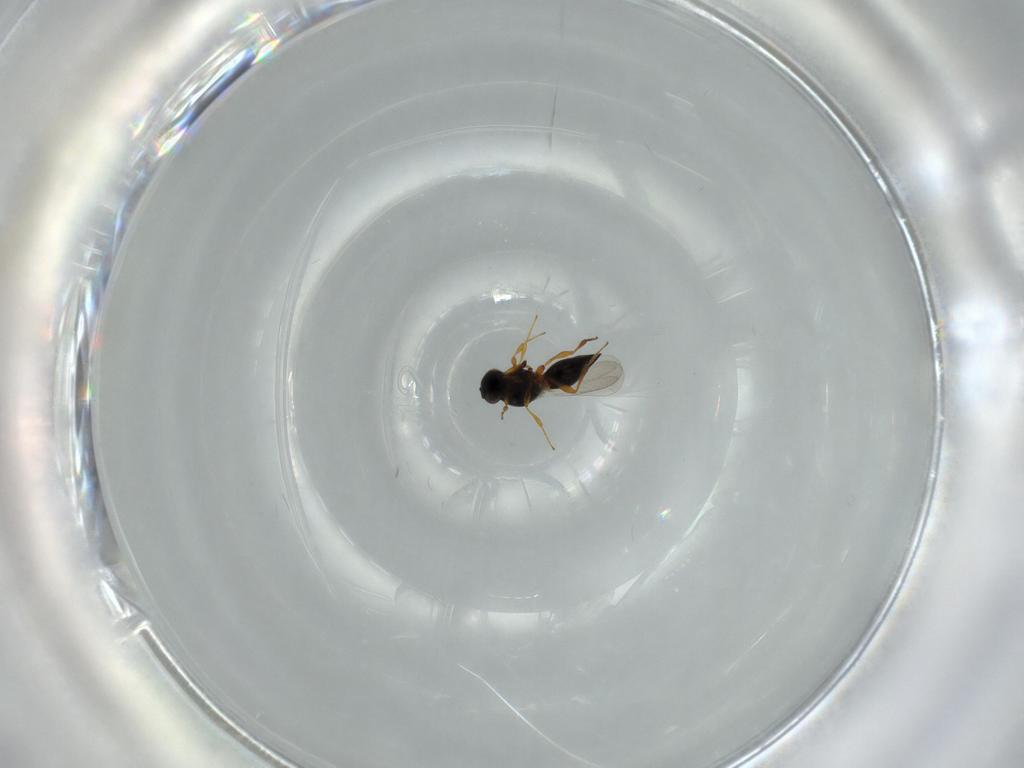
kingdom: Animalia
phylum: Arthropoda
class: Insecta
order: Hymenoptera
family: Platygastridae
